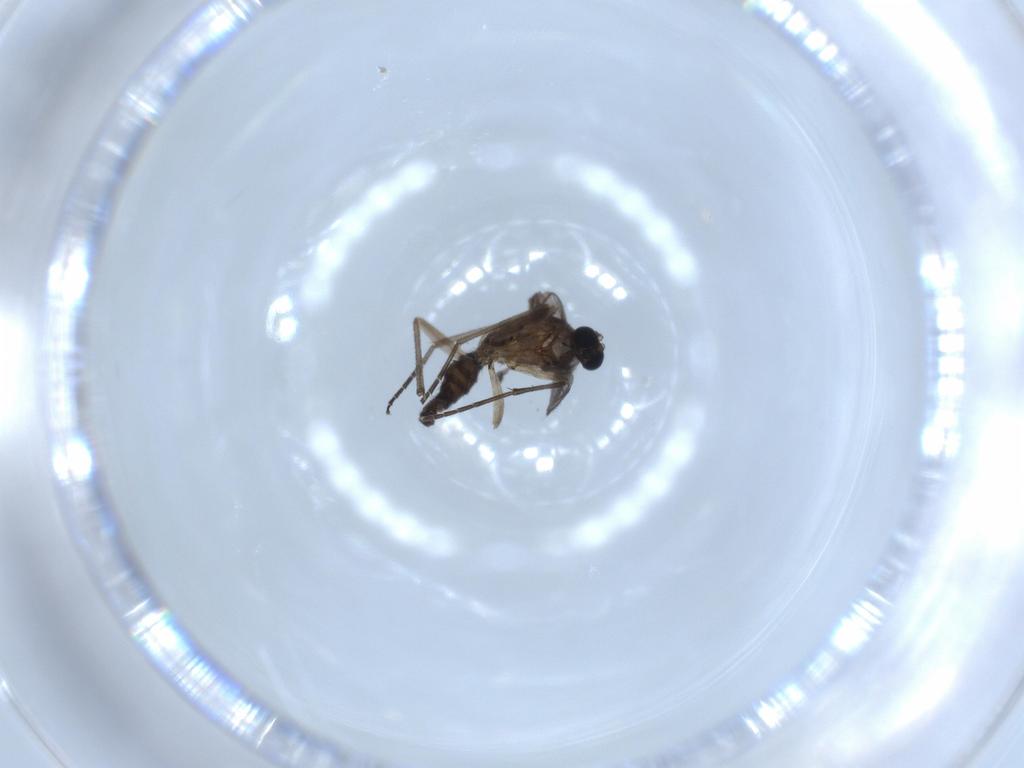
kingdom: Animalia
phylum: Arthropoda
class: Insecta
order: Diptera
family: Sciaridae
